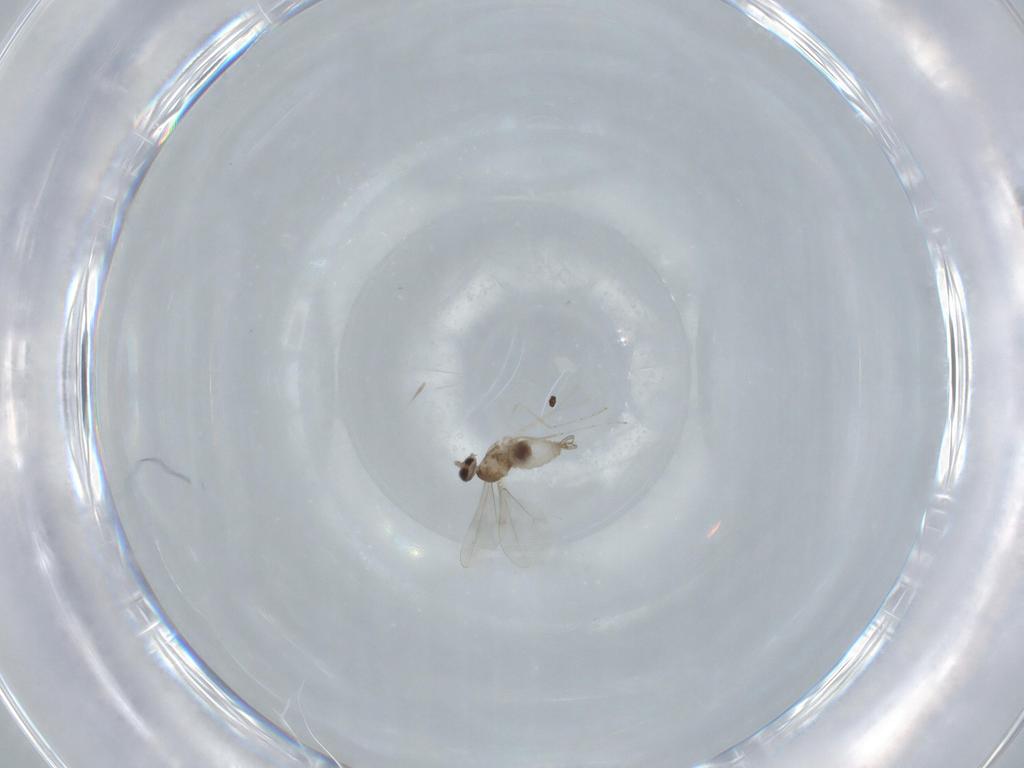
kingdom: Animalia
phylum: Arthropoda
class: Insecta
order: Diptera
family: Cecidomyiidae
